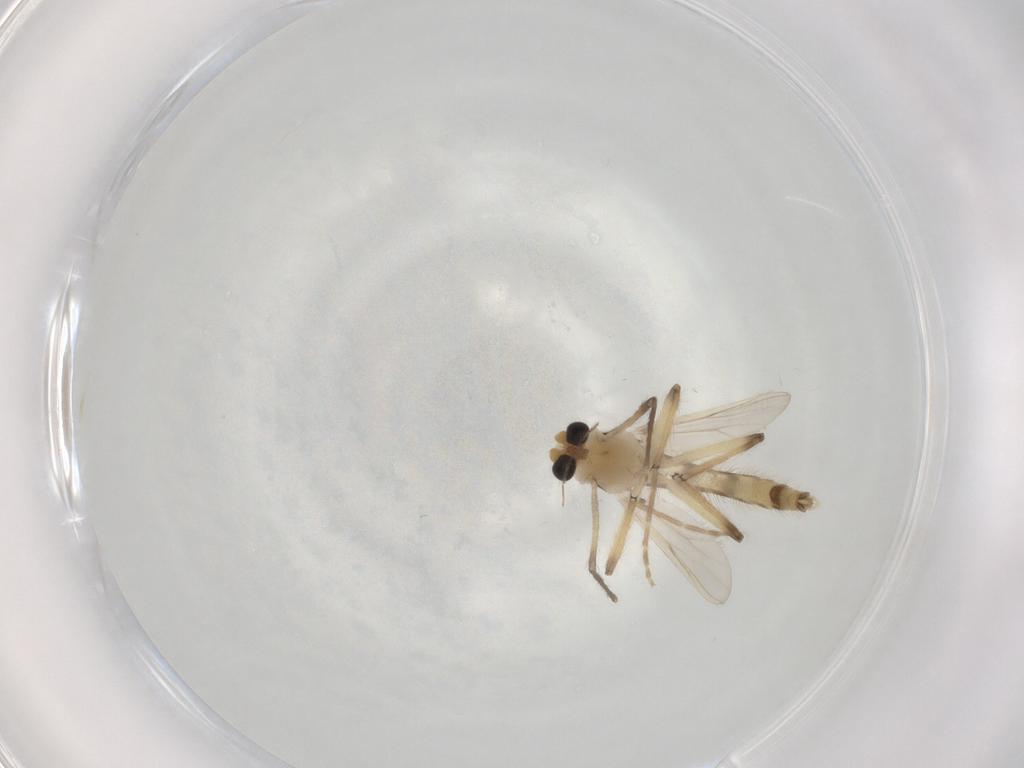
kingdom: Animalia
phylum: Arthropoda
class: Insecta
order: Diptera
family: Chironomidae
